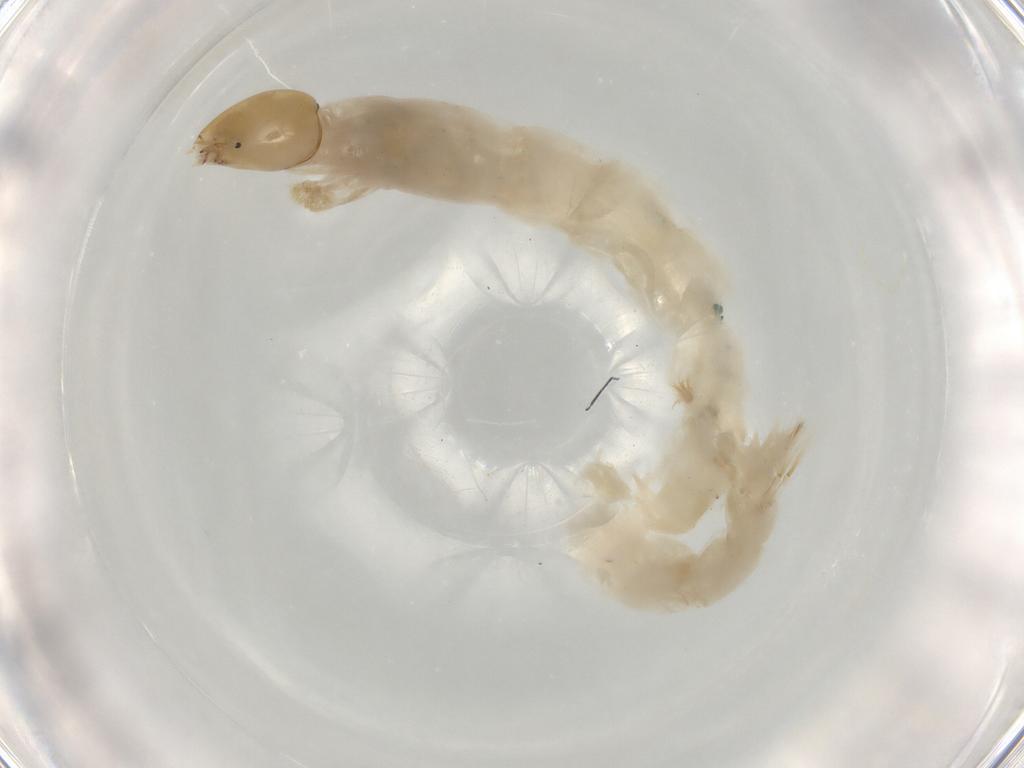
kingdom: Animalia
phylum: Arthropoda
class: Insecta
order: Diptera
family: Chironomidae
